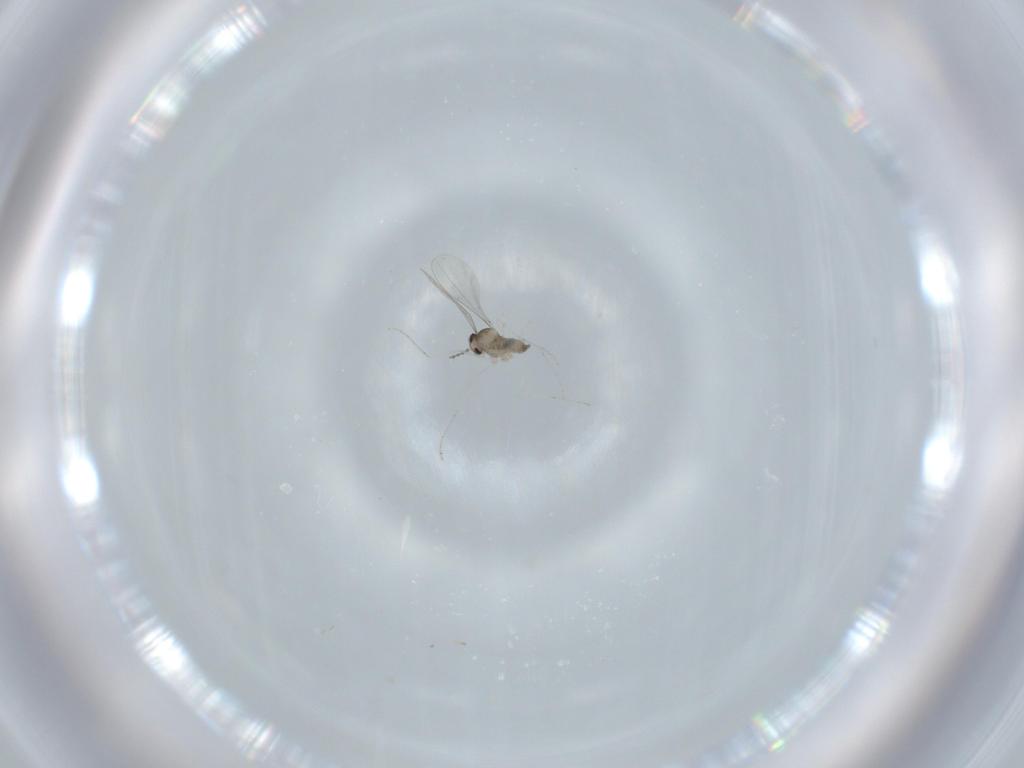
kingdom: Animalia
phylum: Arthropoda
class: Insecta
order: Diptera
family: Cecidomyiidae
